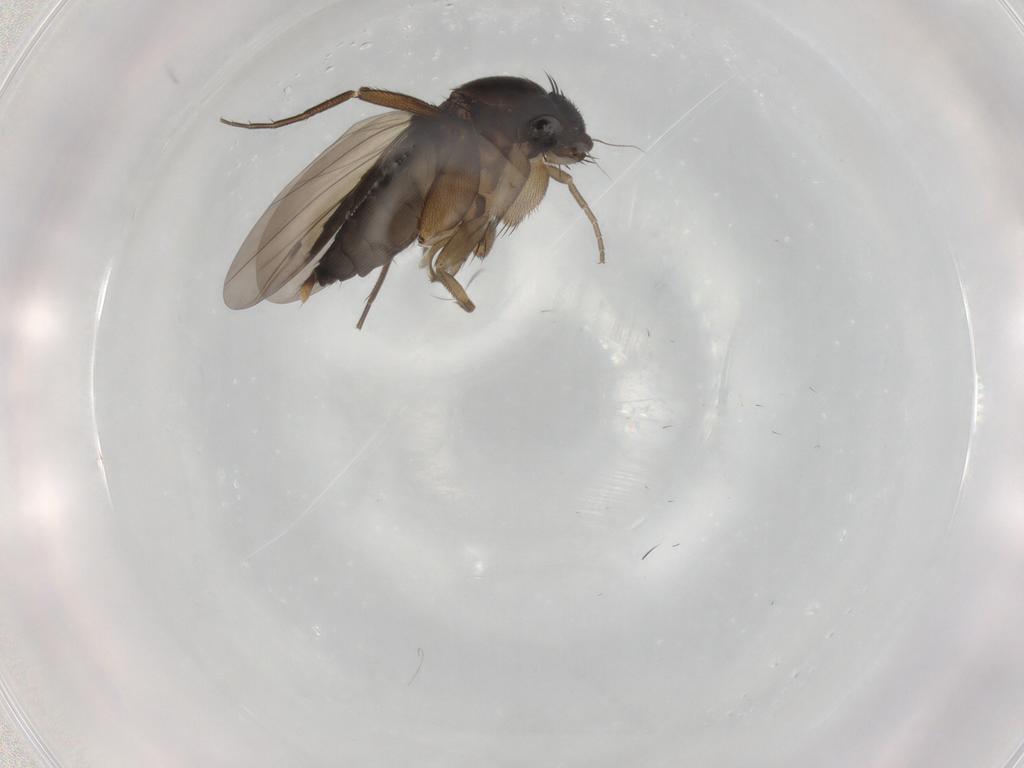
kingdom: Animalia
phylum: Arthropoda
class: Insecta
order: Diptera
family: Phoridae
